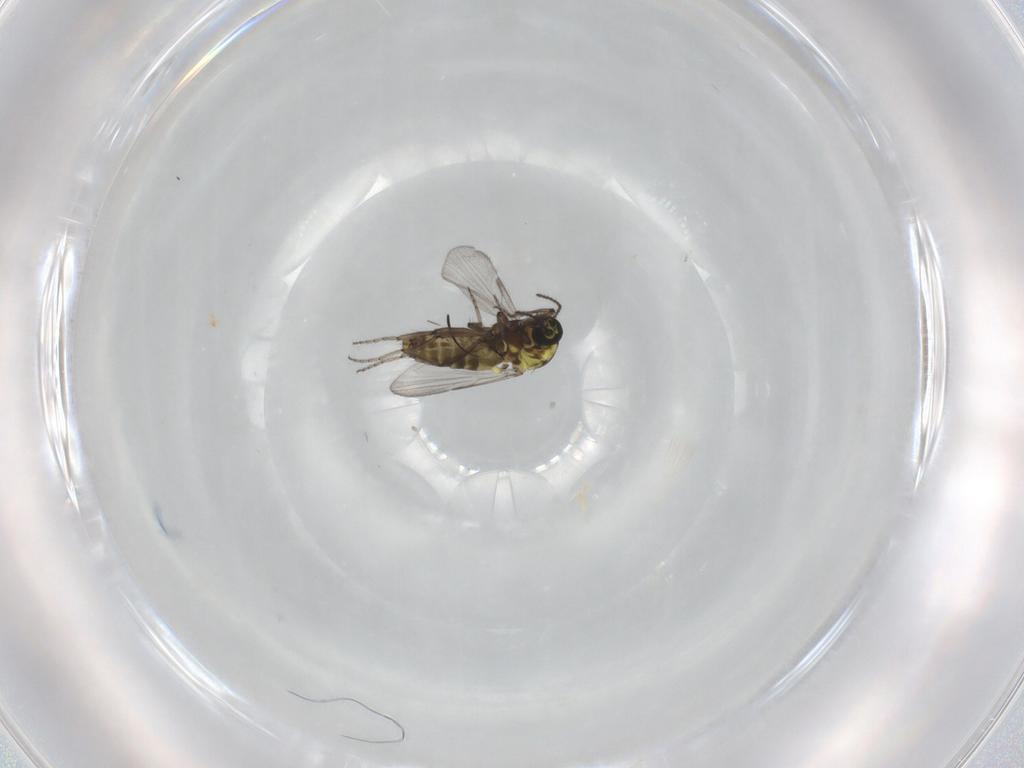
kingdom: Animalia
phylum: Arthropoda
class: Insecta
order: Diptera
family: Ceratopogonidae
